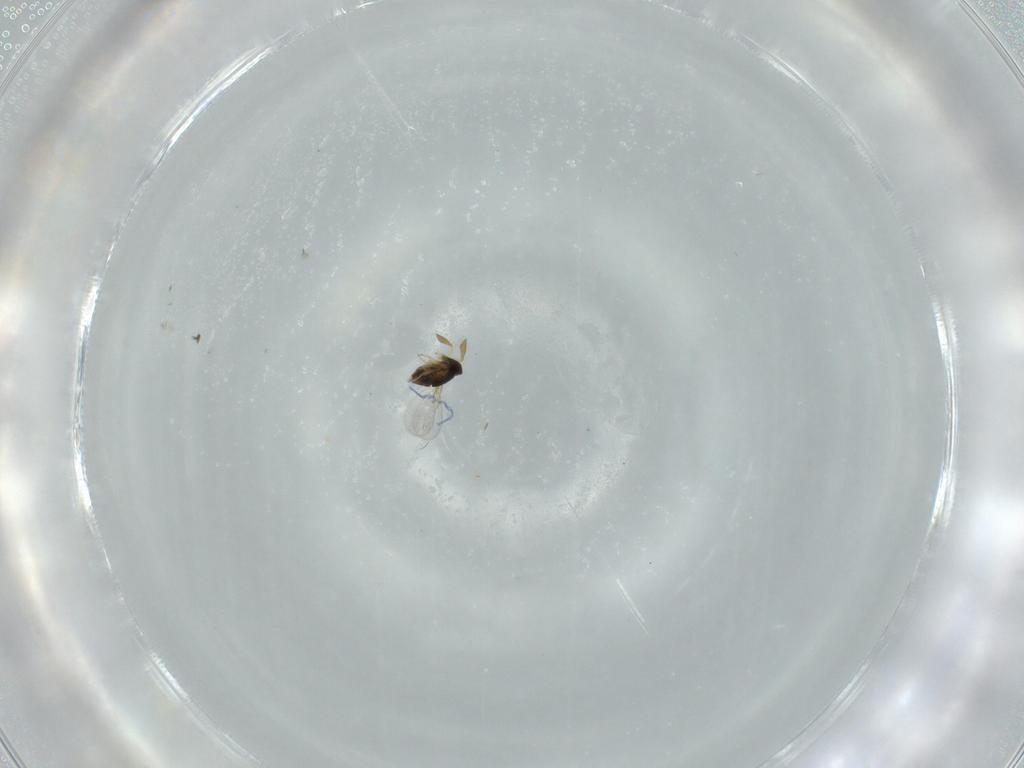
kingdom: Animalia
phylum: Arthropoda
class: Insecta
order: Hymenoptera
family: Encyrtidae
